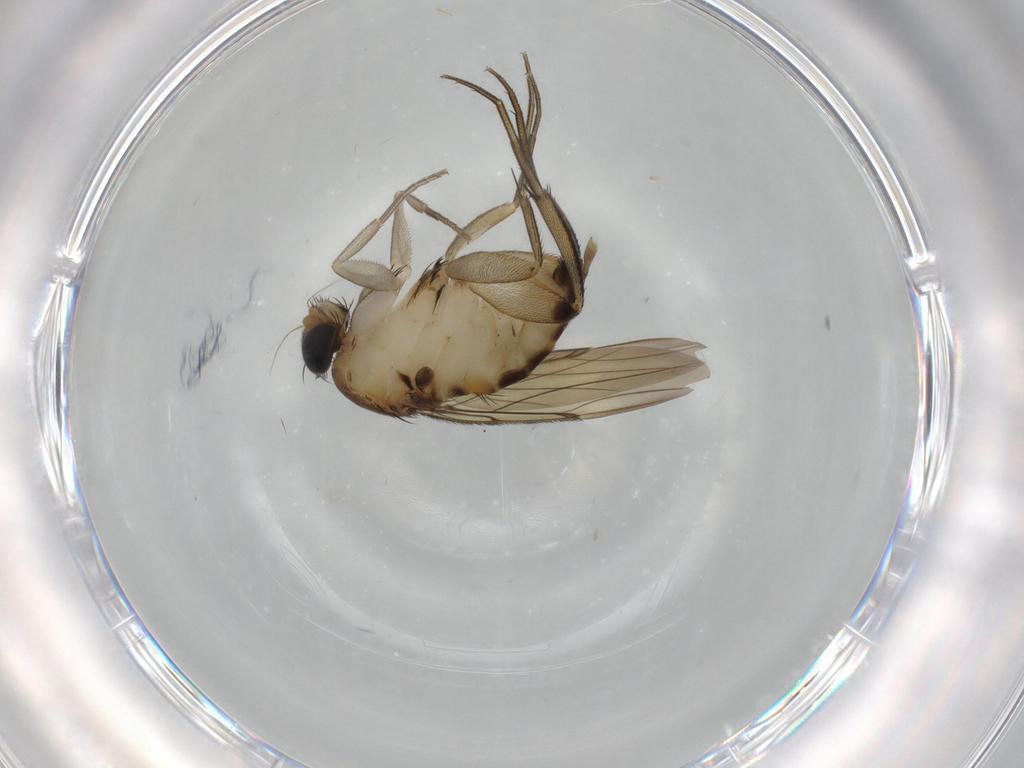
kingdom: Animalia
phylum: Arthropoda
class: Insecta
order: Diptera
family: Phoridae
